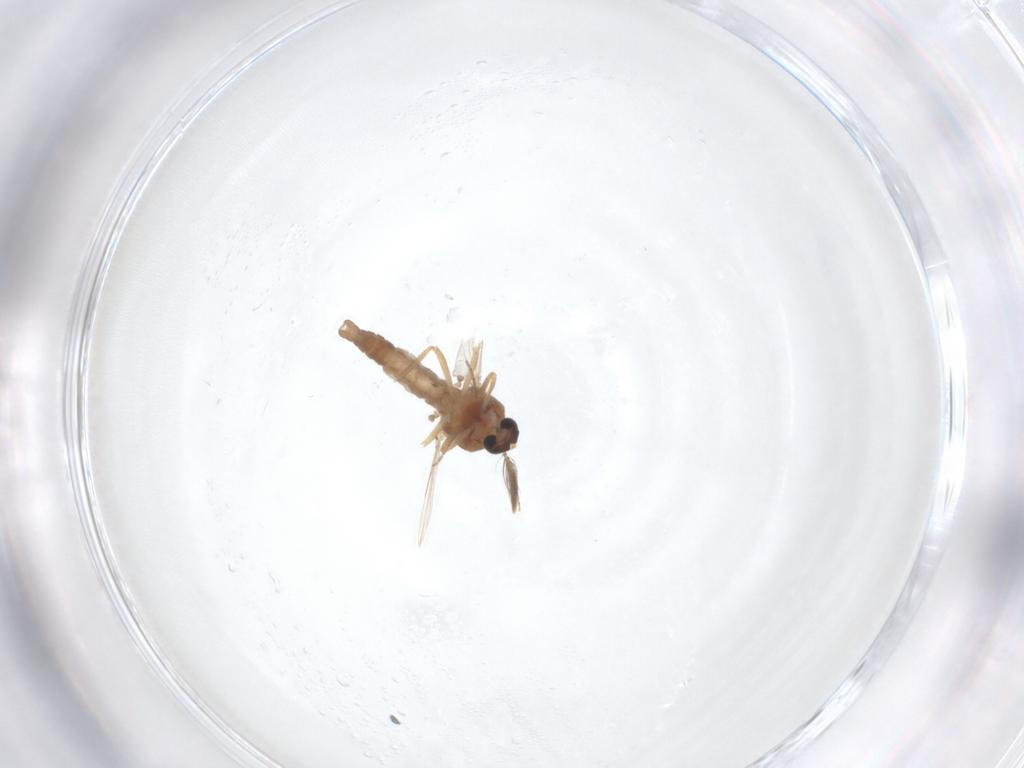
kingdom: Animalia
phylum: Arthropoda
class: Insecta
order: Diptera
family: Ceratopogonidae
